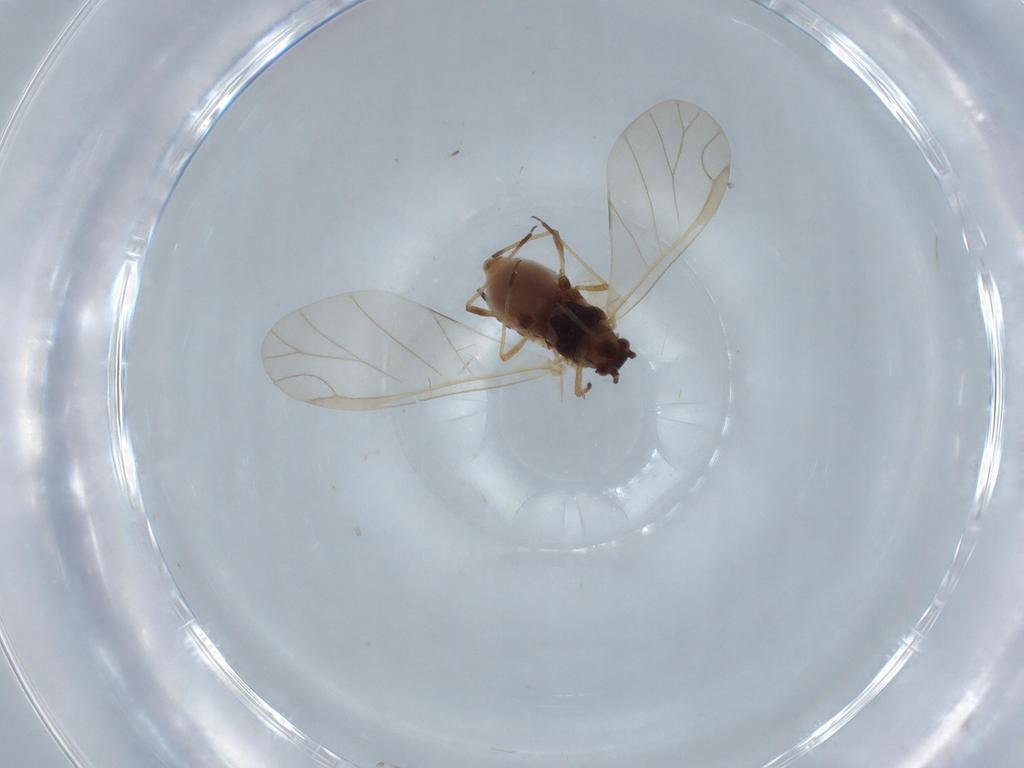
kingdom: Animalia
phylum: Arthropoda
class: Insecta
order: Hemiptera
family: Aphididae
